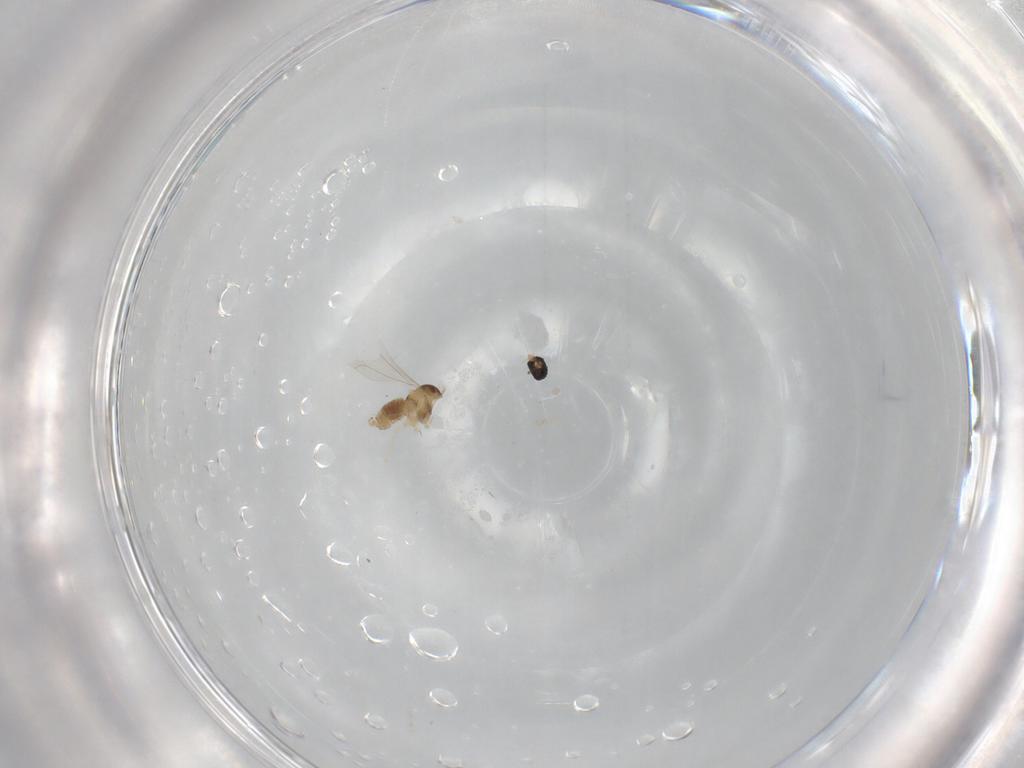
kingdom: Animalia
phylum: Arthropoda
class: Insecta
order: Diptera
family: Cecidomyiidae
